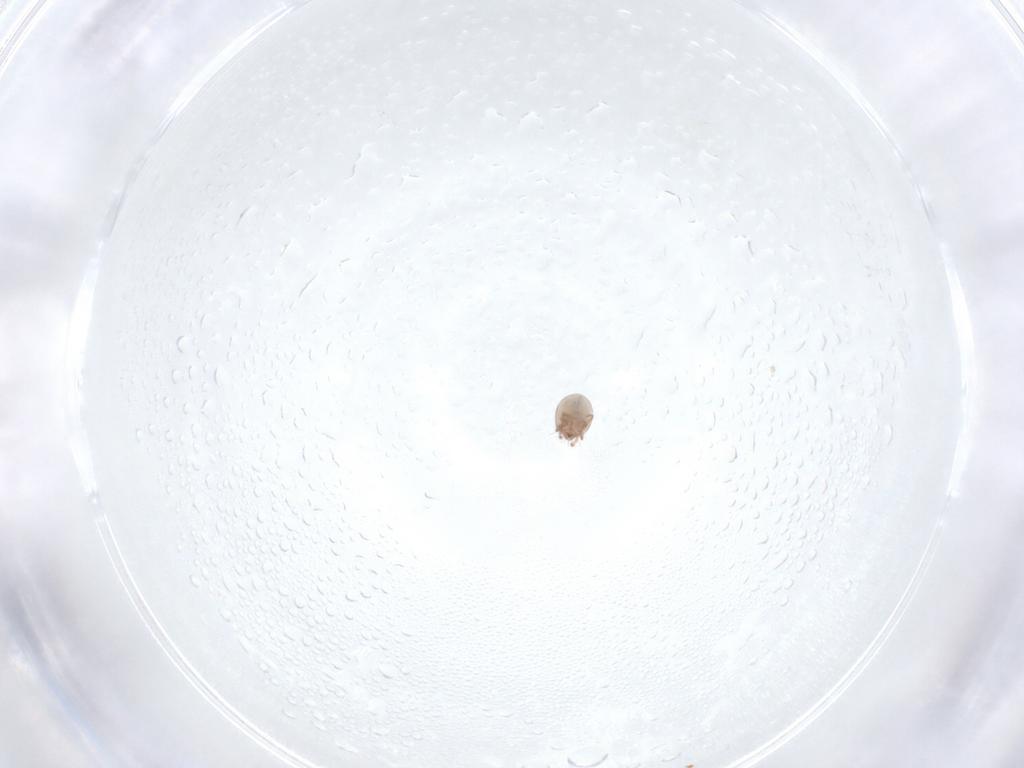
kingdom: Animalia
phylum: Arthropoda
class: Arachnida
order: Sarcoptiformes
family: Galumnidae
